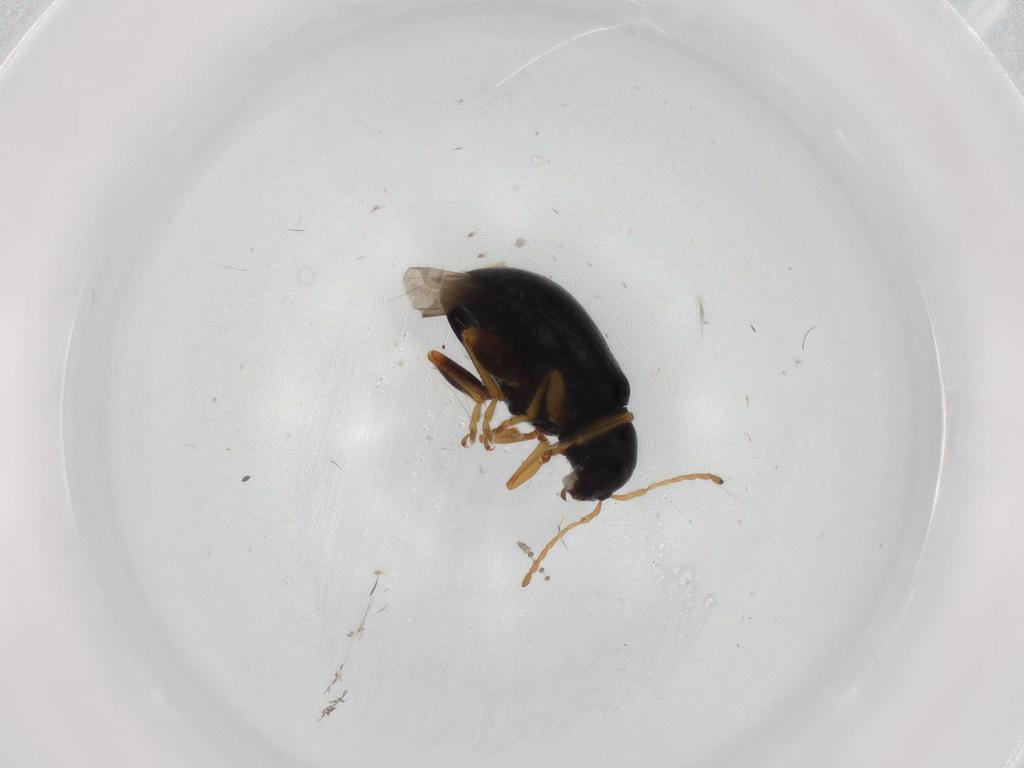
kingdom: Animalia
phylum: Arthropoda
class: Insecta
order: Coleoptera
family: Chrysomelidae
